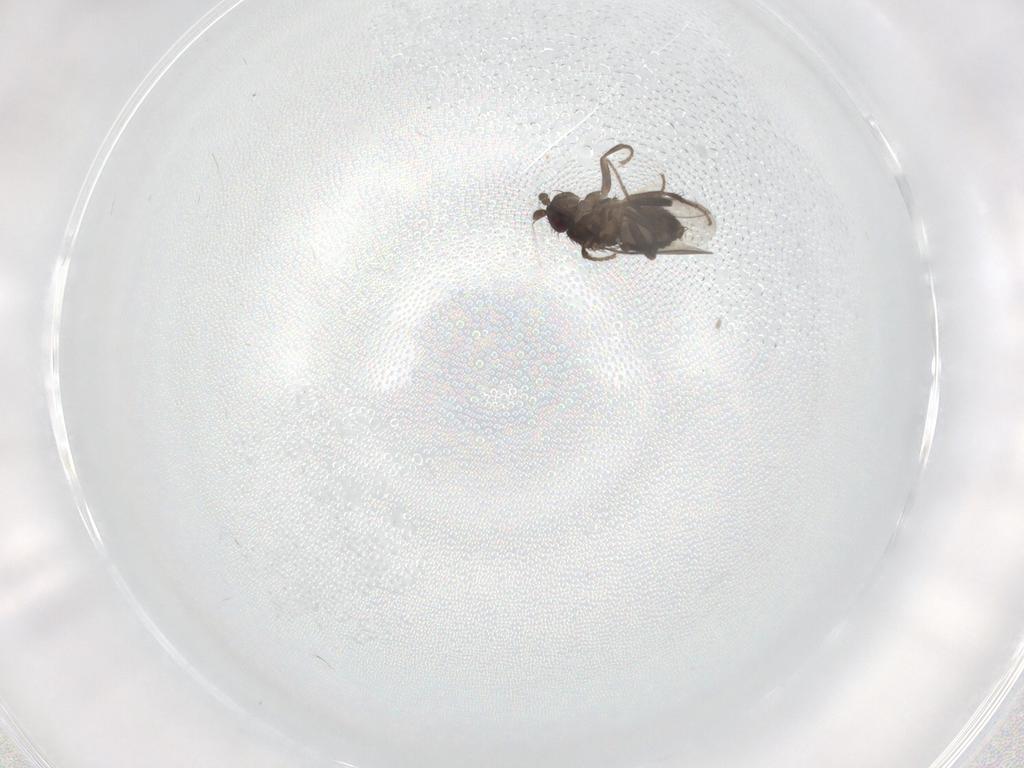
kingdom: Animalia
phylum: Arthropoda
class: Insecta
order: Diptera
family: Sphaeroceridae
